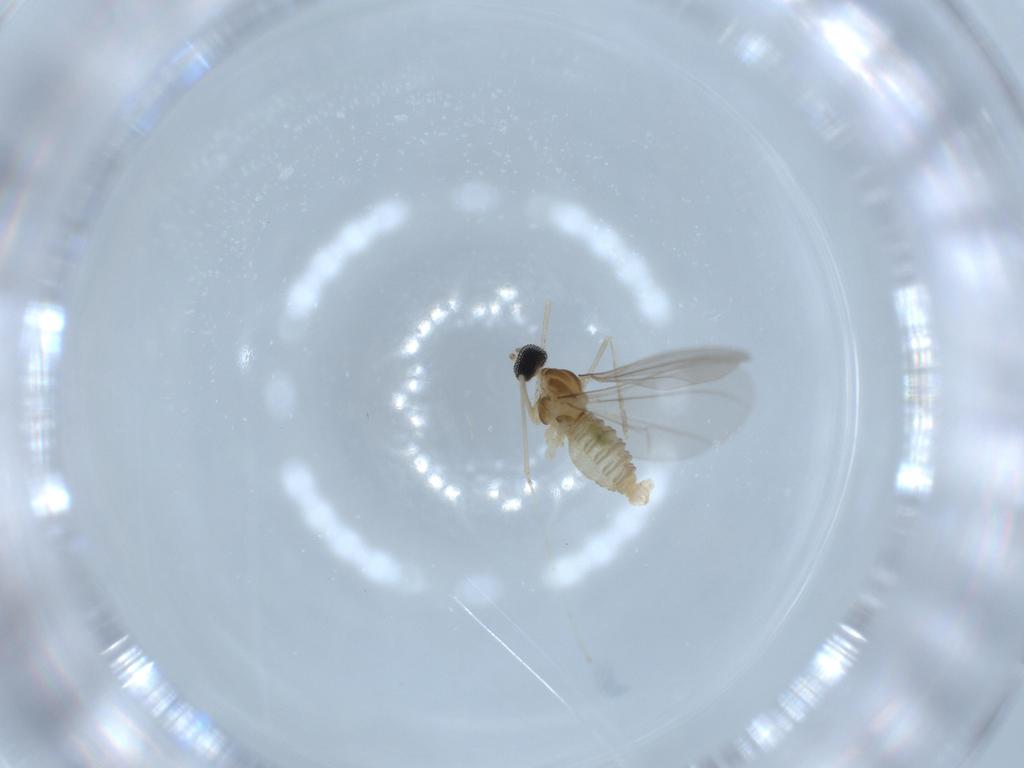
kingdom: Animalia
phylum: Arthropoda
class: Insecta
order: Diptera
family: Cecidomyiidae
